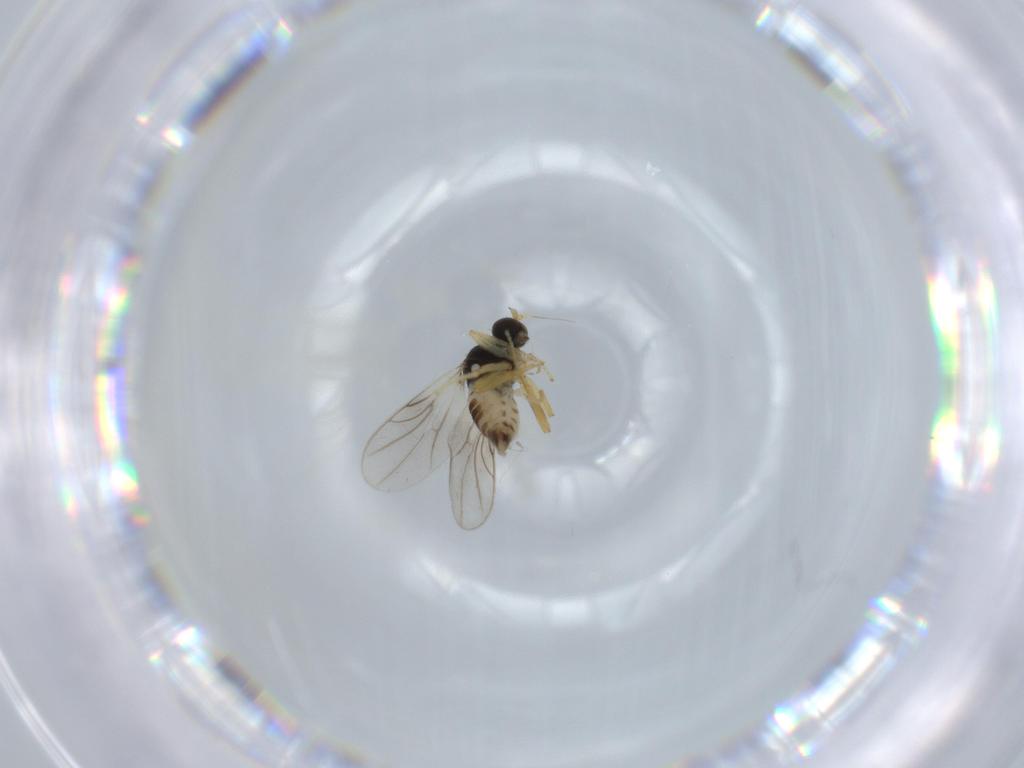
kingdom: Animalia
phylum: Arthropoda
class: Insecta
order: Diptera
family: Hybotidae
